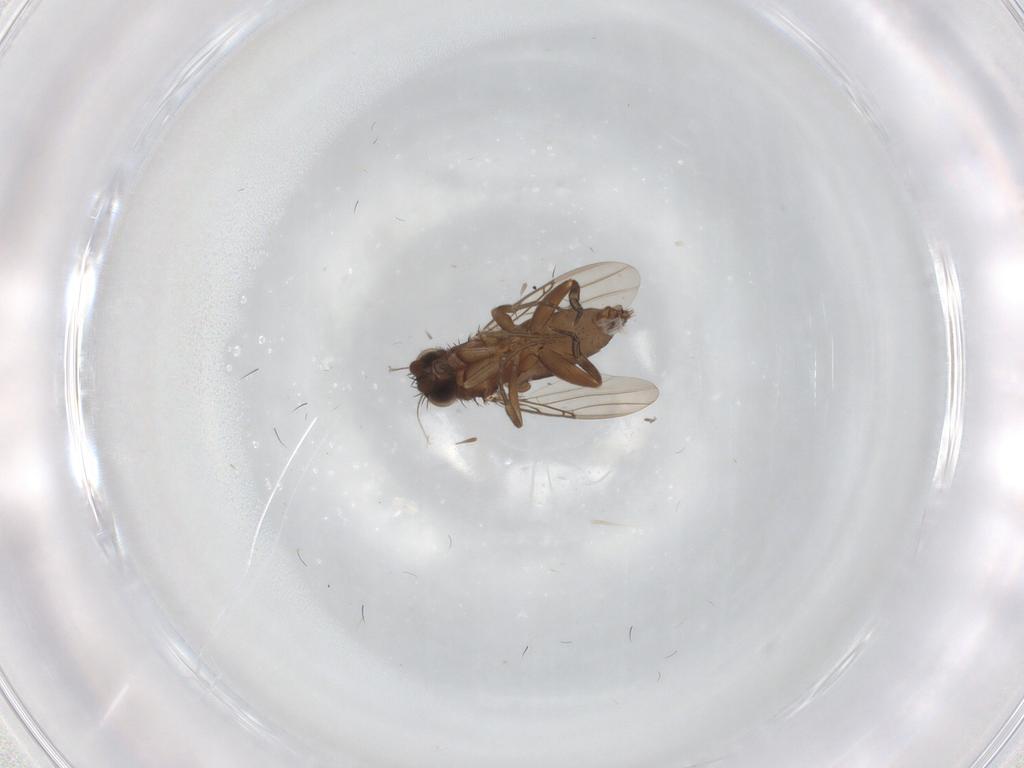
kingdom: Animalia
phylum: Arthropoda
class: Insecta
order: Diptera
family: Phoridae
